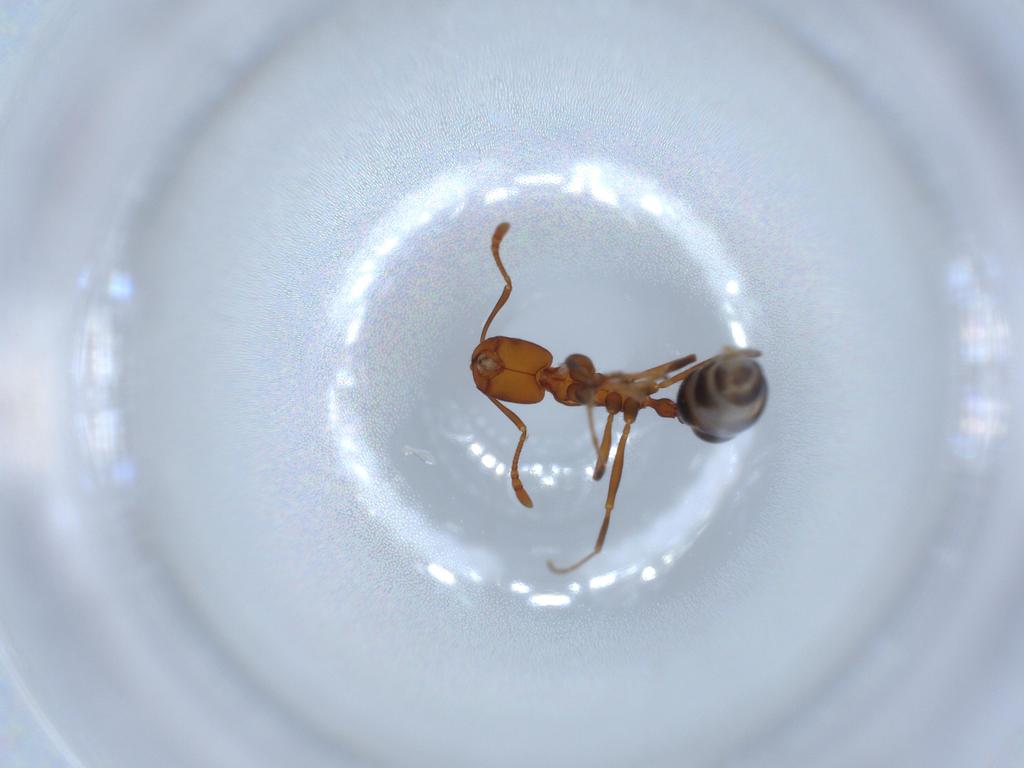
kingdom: Animalia
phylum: Arthropoda
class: Insecta
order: Hymenoptera
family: Formicidae
